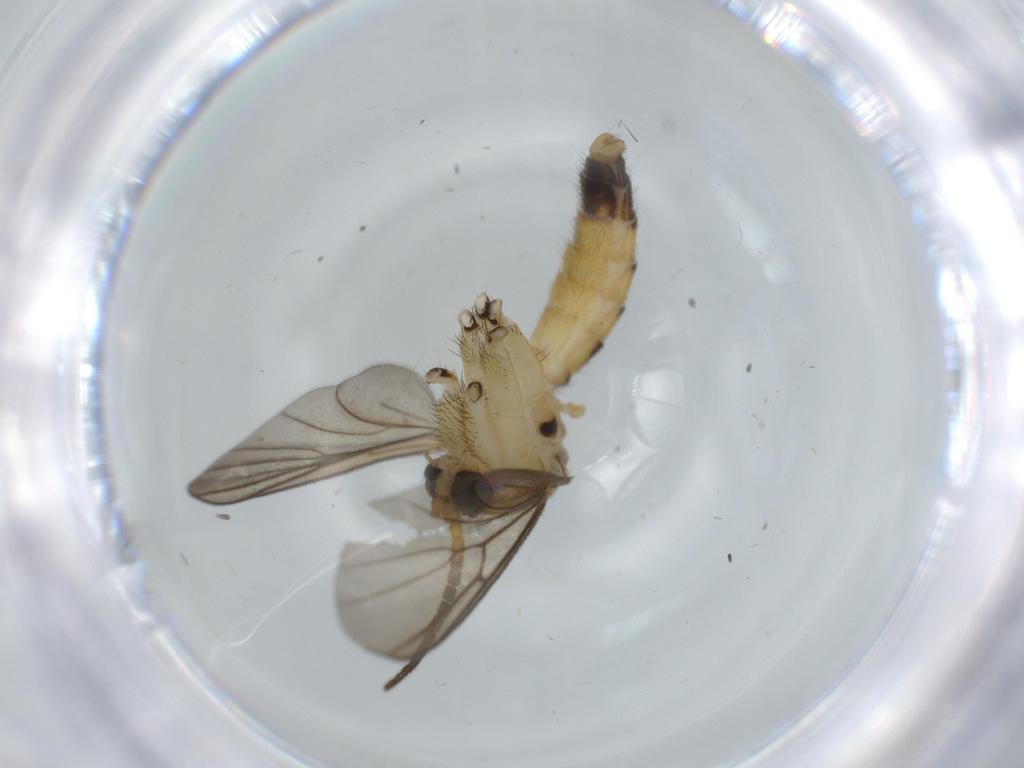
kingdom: Animalia
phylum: Arthropoda
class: Insecta
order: Diptera
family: Milichiidae
